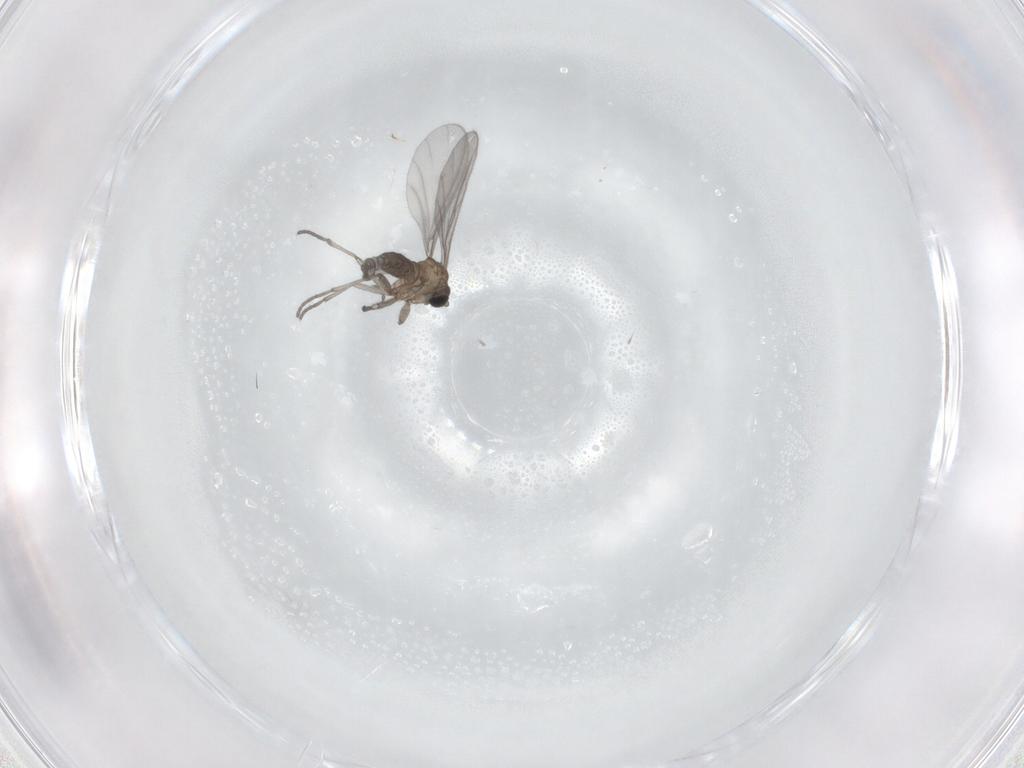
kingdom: Animalia
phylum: Arthropoda
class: Insecta
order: Diptera
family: Sciaridae
